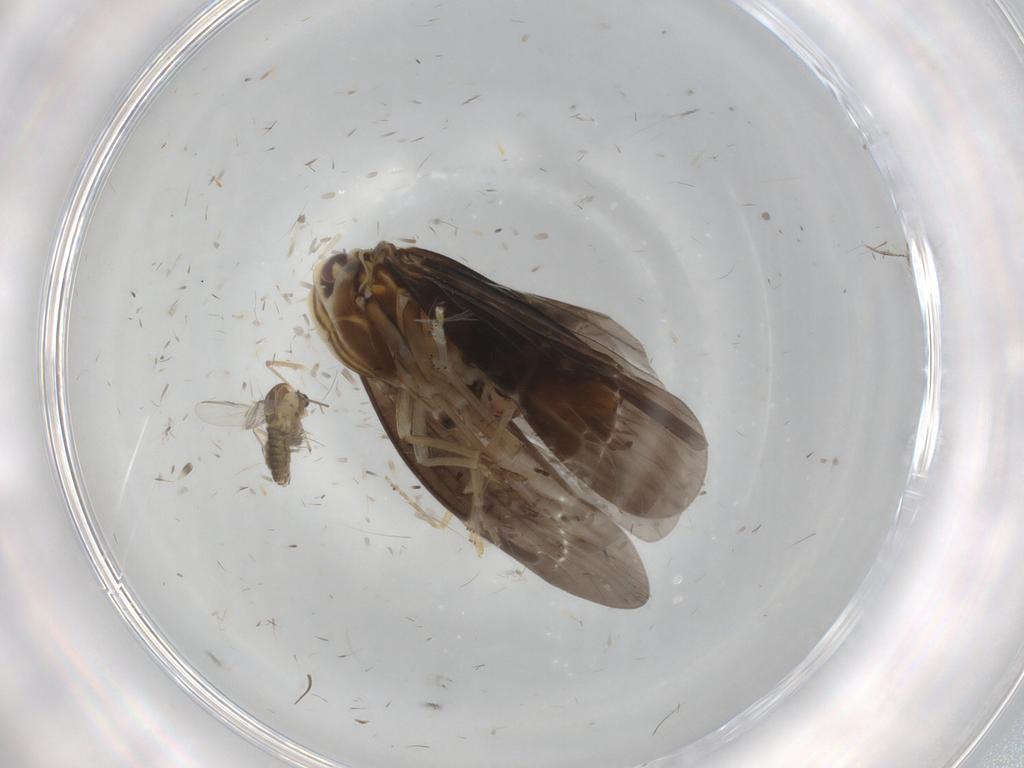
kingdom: Animalia
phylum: Arthropoda
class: Insecta
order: Hemiptera
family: Derbidae
